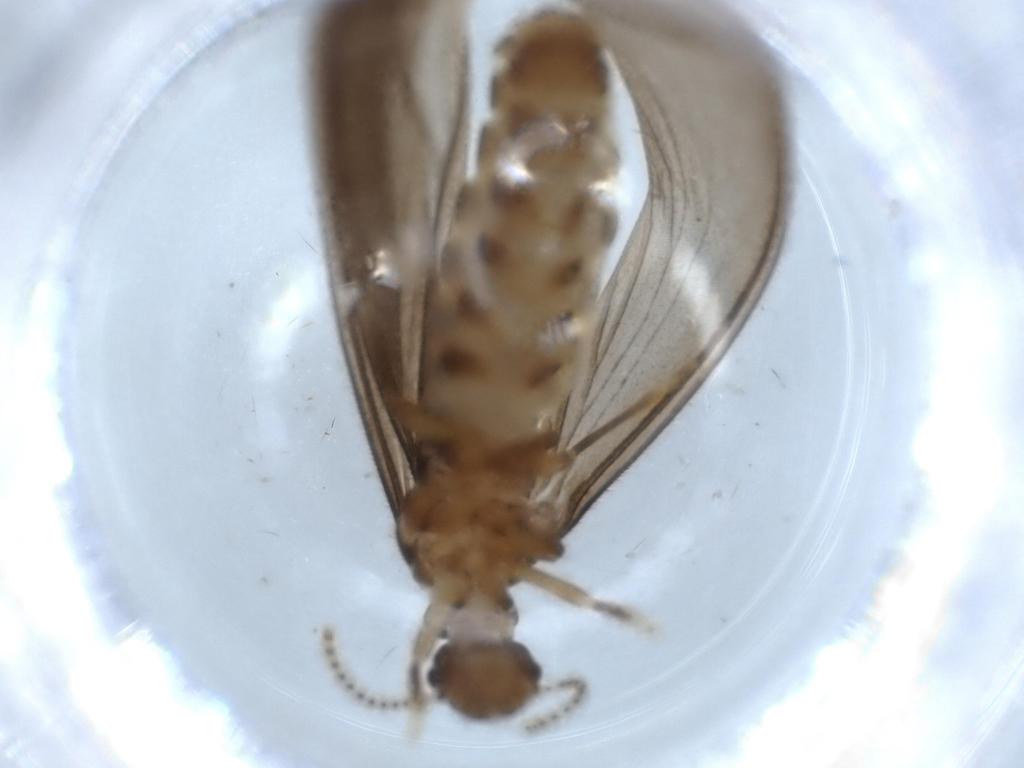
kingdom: Animalia
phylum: Arthropoda
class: Insecta
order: Blattodea
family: Termitidae
